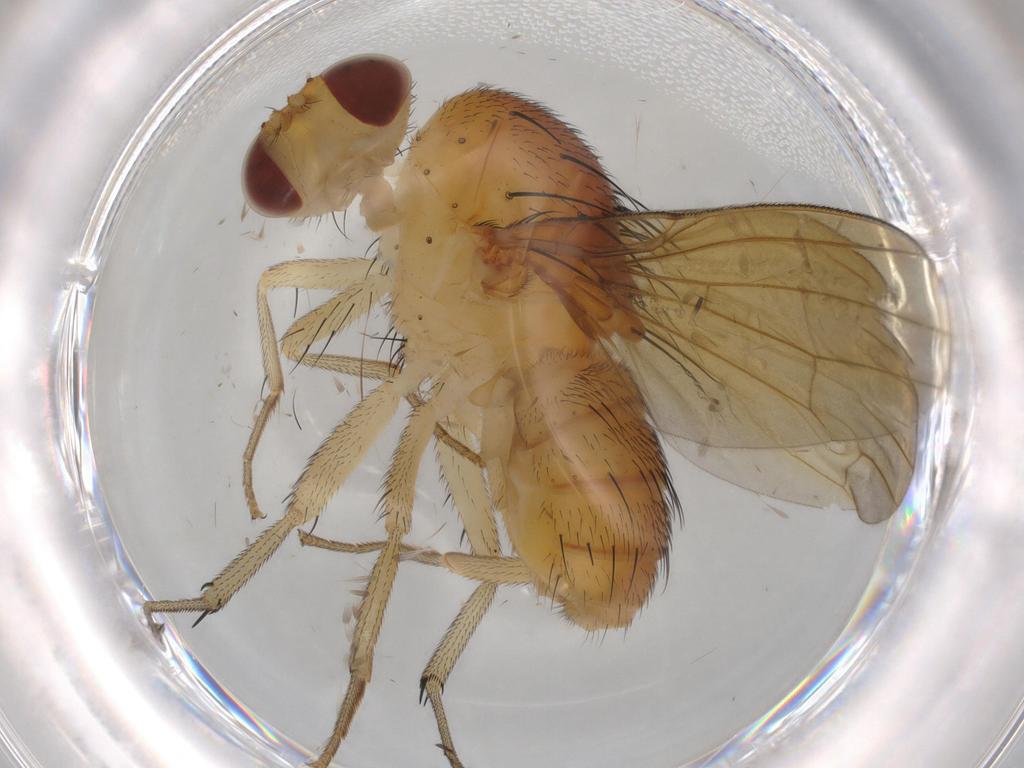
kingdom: Animalia
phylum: Arthropoda
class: Insecta
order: Diptera
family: Cecidomyiidae
